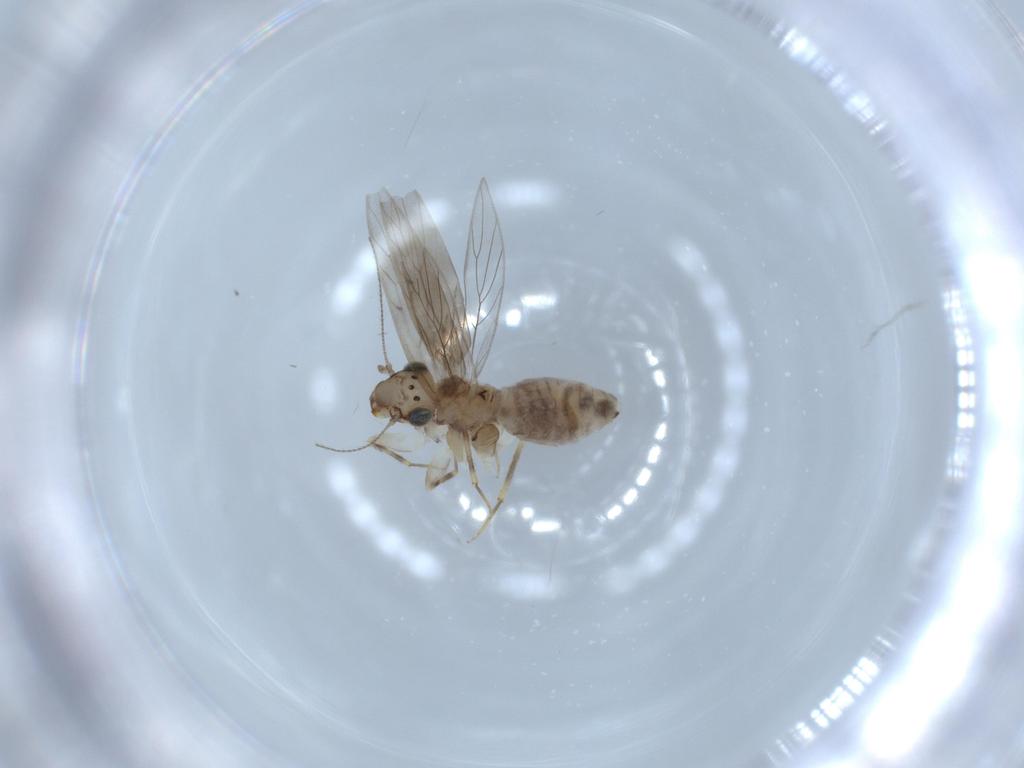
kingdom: Animalia
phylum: Arthropoda
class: Insecta
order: Psocodea
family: Lepidopsocidae
